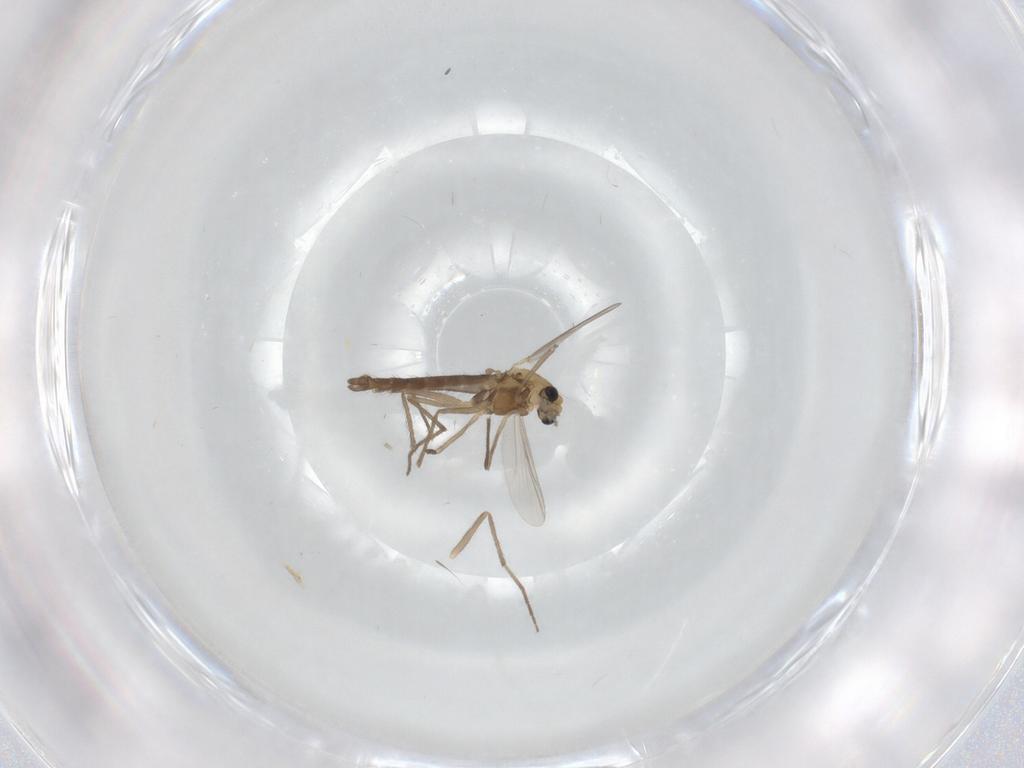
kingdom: Animalia
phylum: Arthropoda
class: Insecta
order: Diptera
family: Chironomidae
